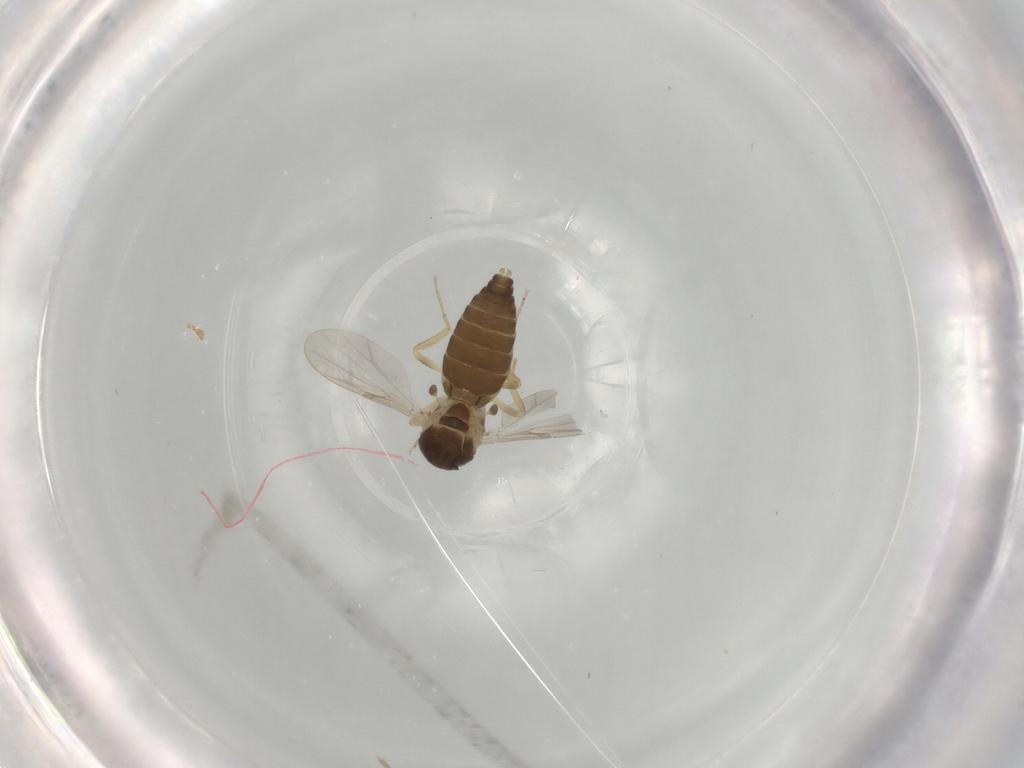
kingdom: Animalia
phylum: Arthropoda
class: Insecta
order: Diptera
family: Ceratopogonidae
